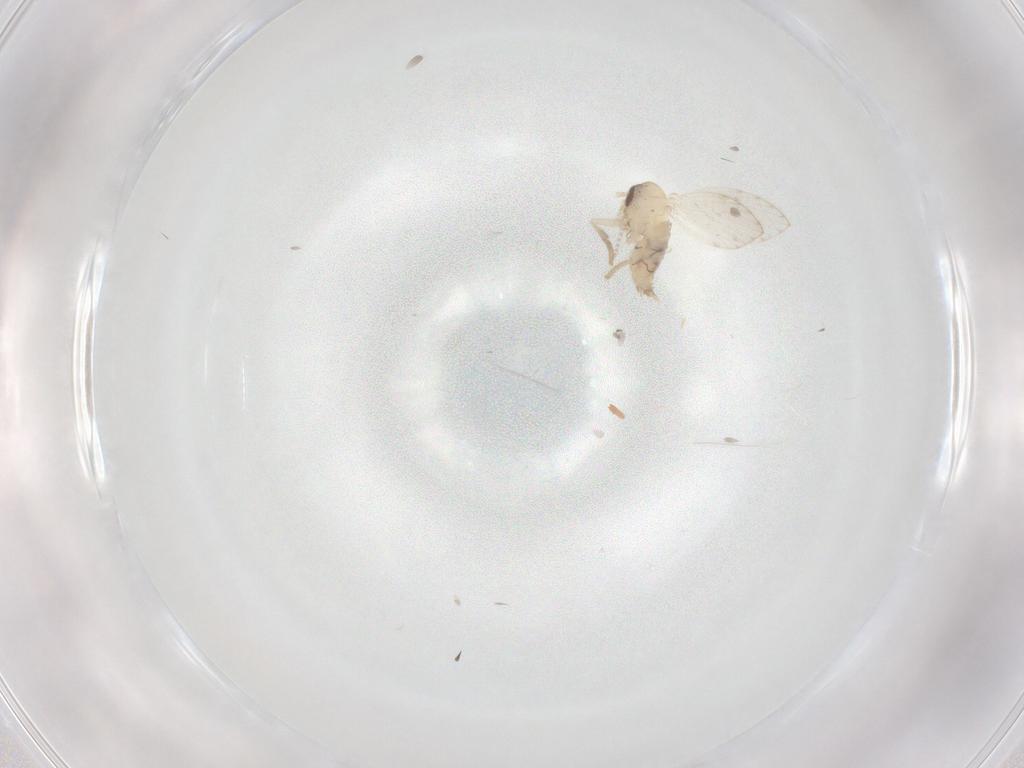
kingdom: Animalia
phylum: Arthropoda
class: Insecta
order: Diptera
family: Psychodidae
